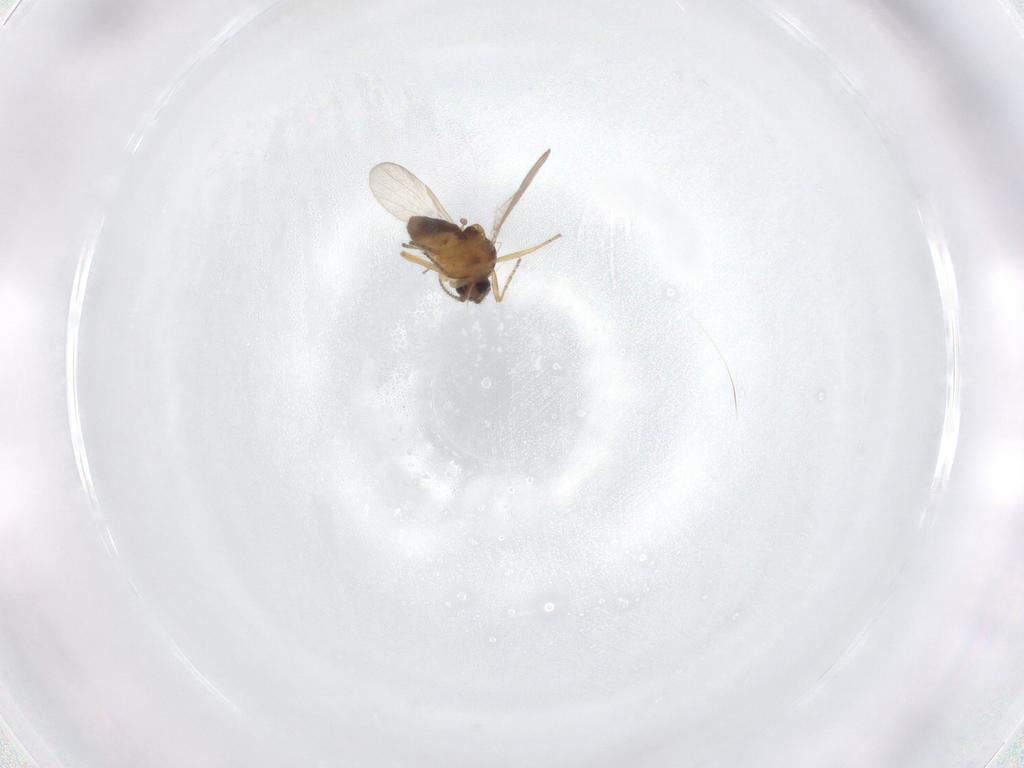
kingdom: Animalia
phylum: Arthropoda
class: Insecta
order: Diptera
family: Ceratopogonidae
